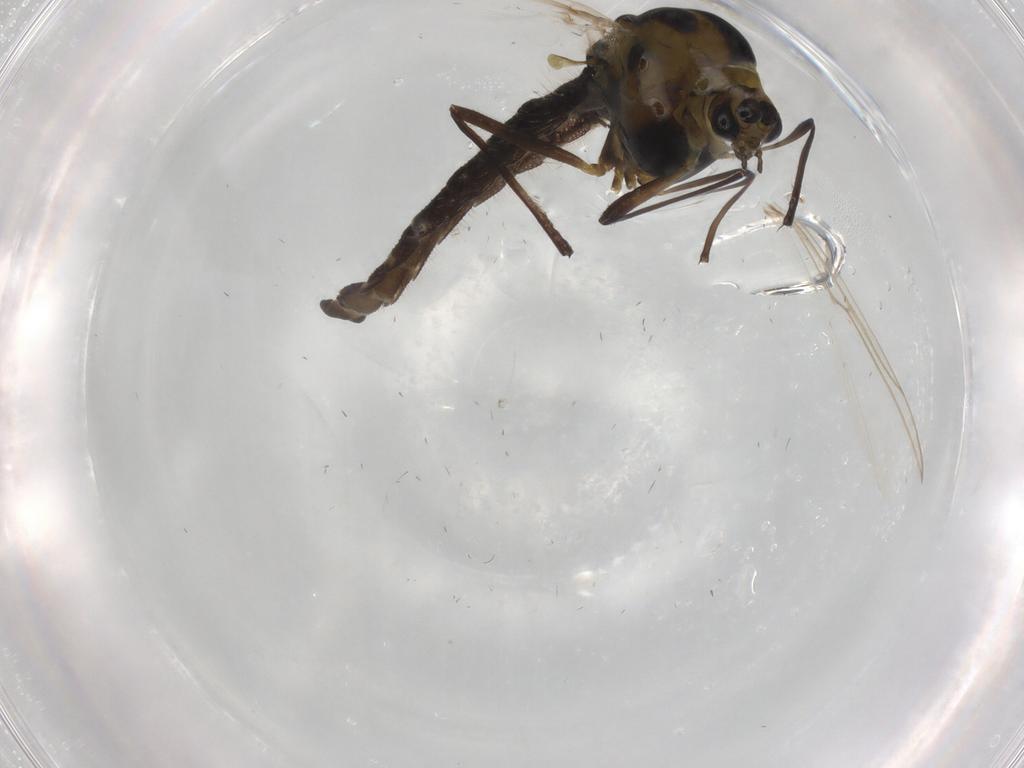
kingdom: Animalia
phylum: Arthropoda
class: Insecta
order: Diptera
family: Chironomidae
